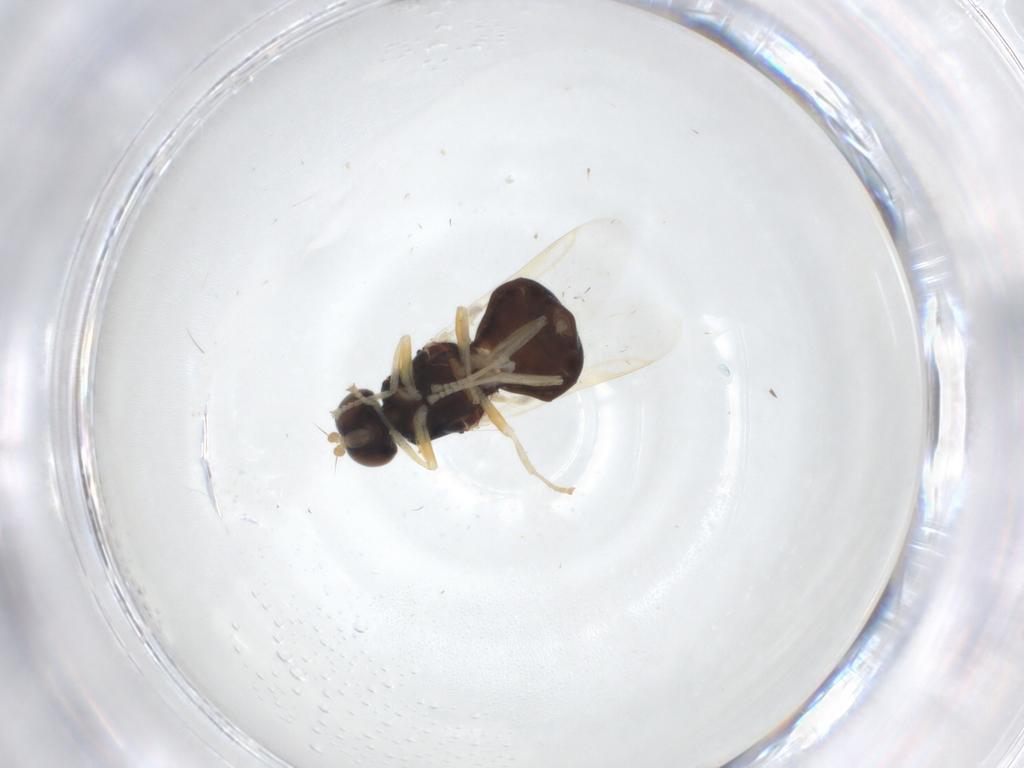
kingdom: Animalia
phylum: Arthropoda
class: Insecta
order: Diptera
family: Stratiomyidae
